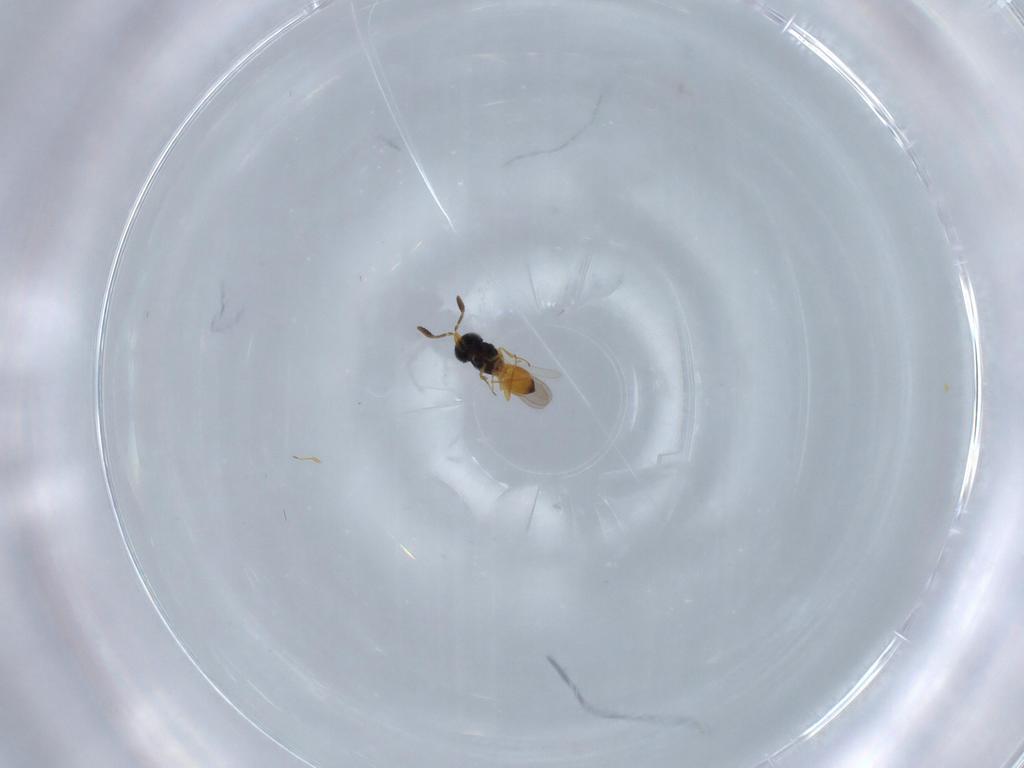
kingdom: Animalia
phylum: Arthropoda
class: Insecta
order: Hymenoptera
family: Scelionidae
